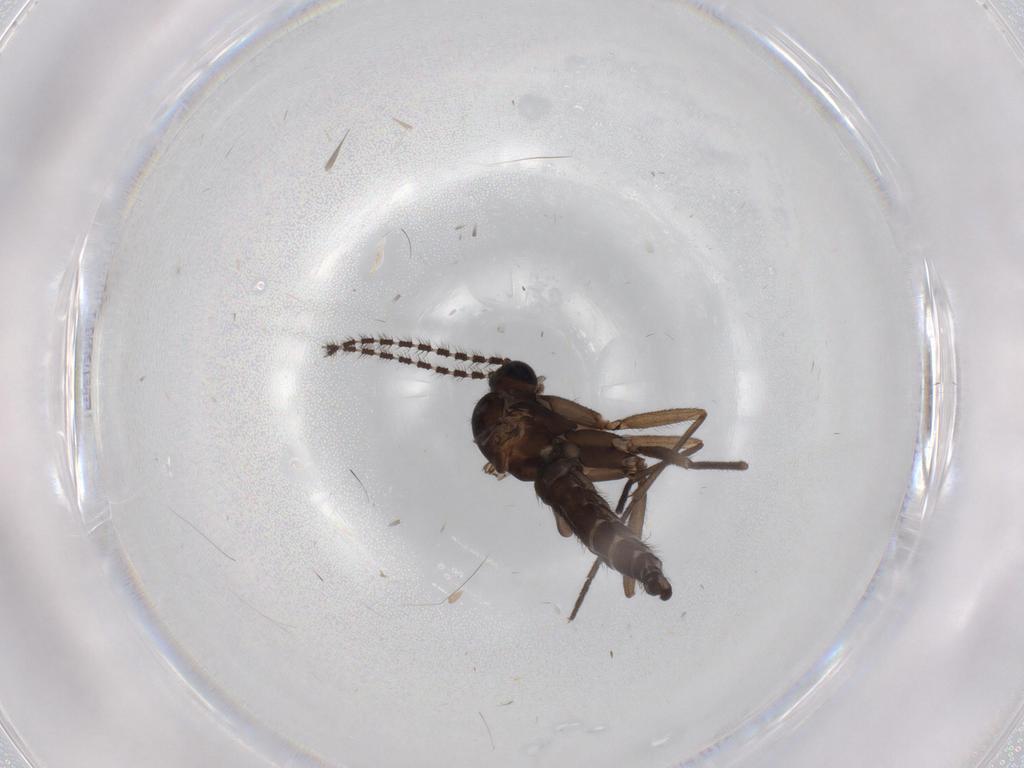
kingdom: Animalia
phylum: Arthropoda
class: Insecta
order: Diptera
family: Sciaridae
